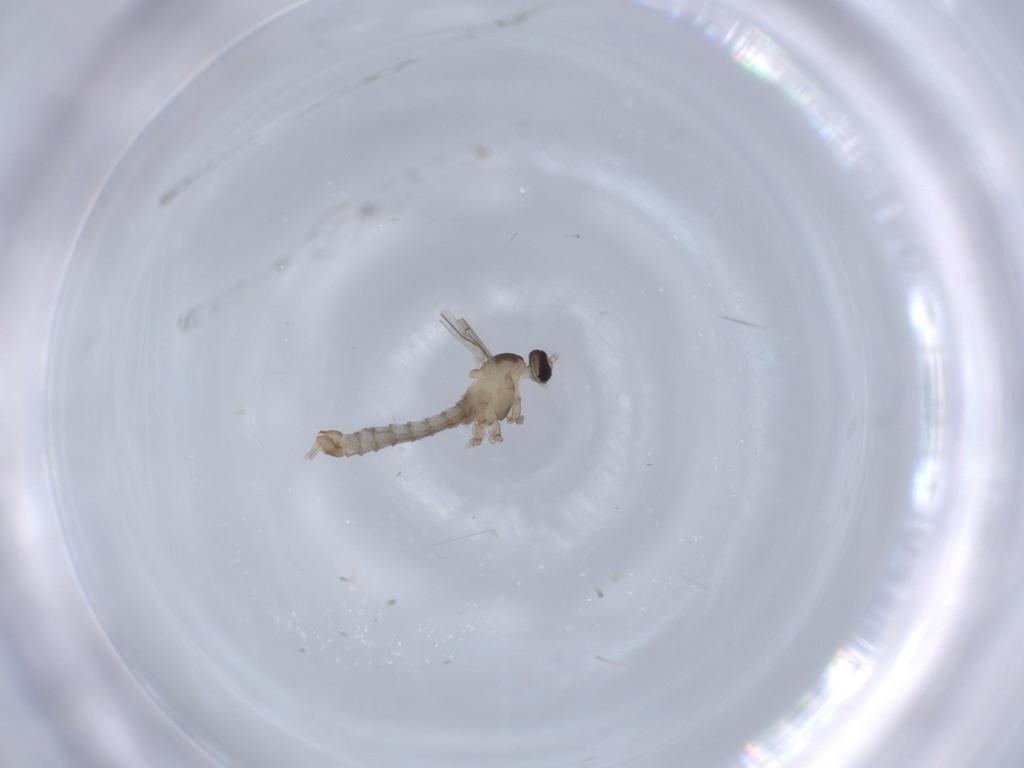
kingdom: Animalia
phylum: Arthropoda
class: Insecta
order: Diptera
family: Cecidomyiidae
